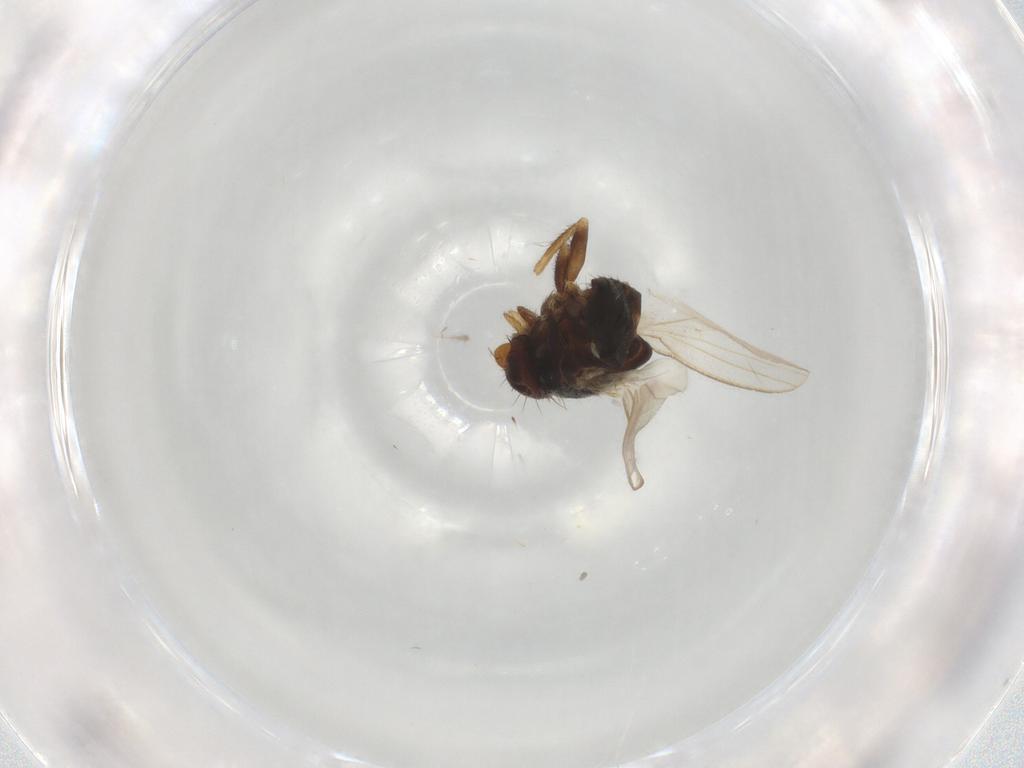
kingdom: Animalia
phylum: Arthropoda
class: Insecta
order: Diptera
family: Milichiidae
